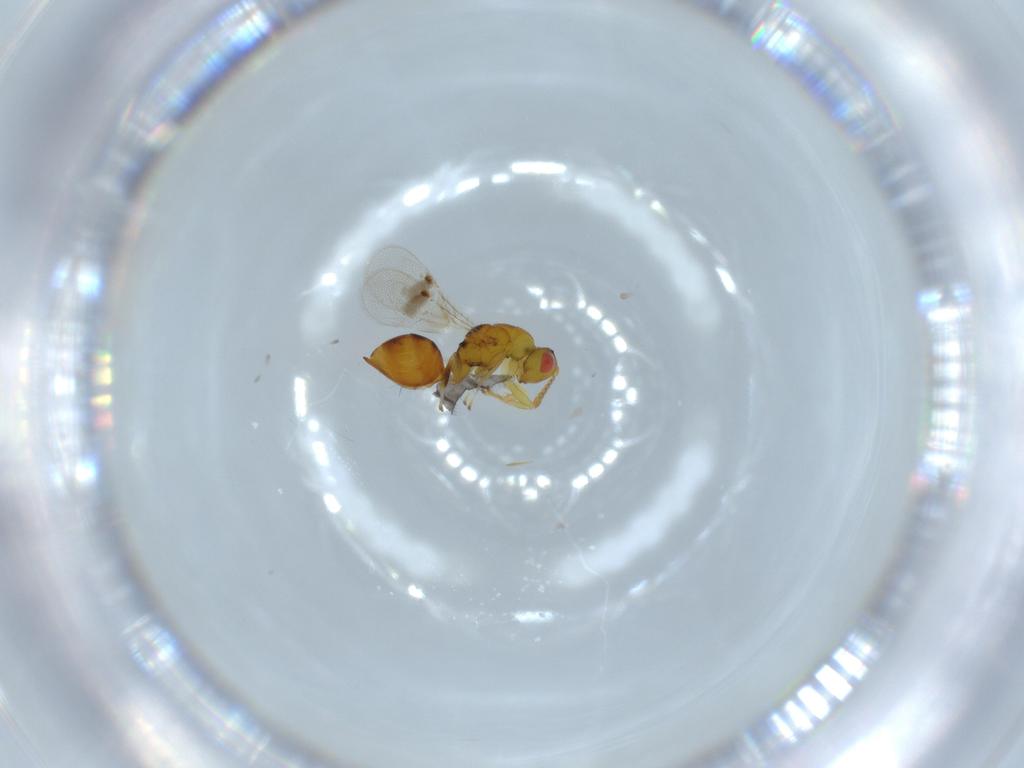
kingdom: Animalia
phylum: Arthropoda
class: Insecta
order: Hymenoptera
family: Eurytomidae
